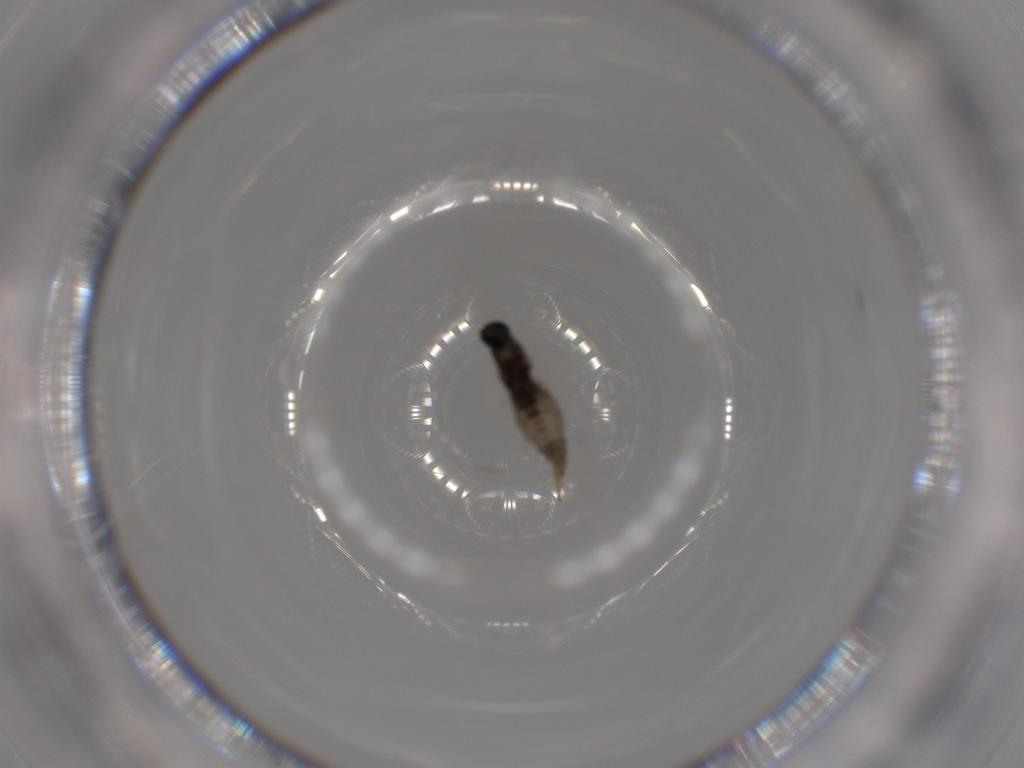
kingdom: Animalia
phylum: Arthropoda
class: Insecta
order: Diptera
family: Cecidomyiidae
